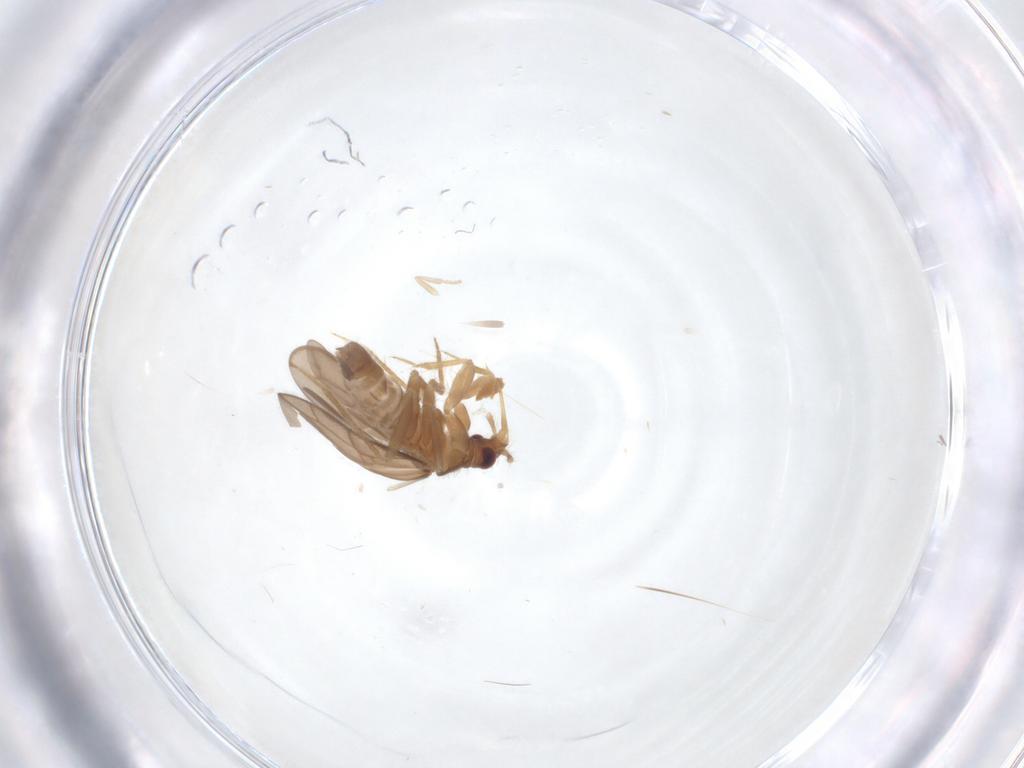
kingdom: Animalia
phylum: Arthropoda
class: Insecta
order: Hemiptera
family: Ceratocombidae
